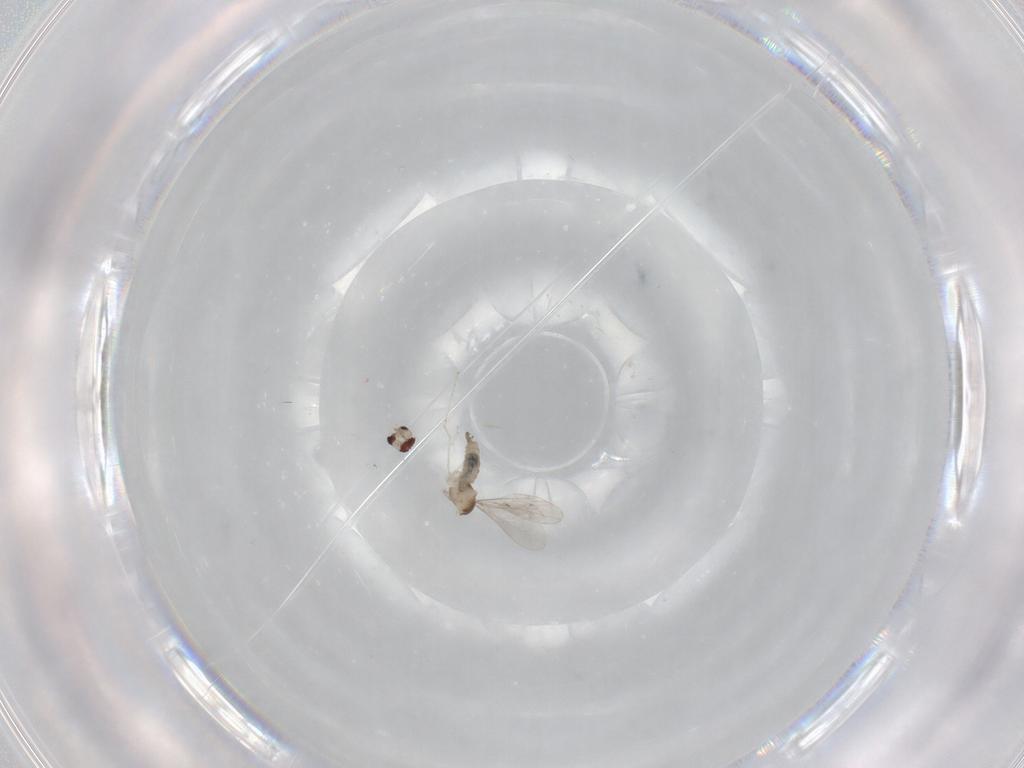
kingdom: Animalia
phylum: Arthropoda
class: Insecta
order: Diptera
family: Cecidomyiidae
